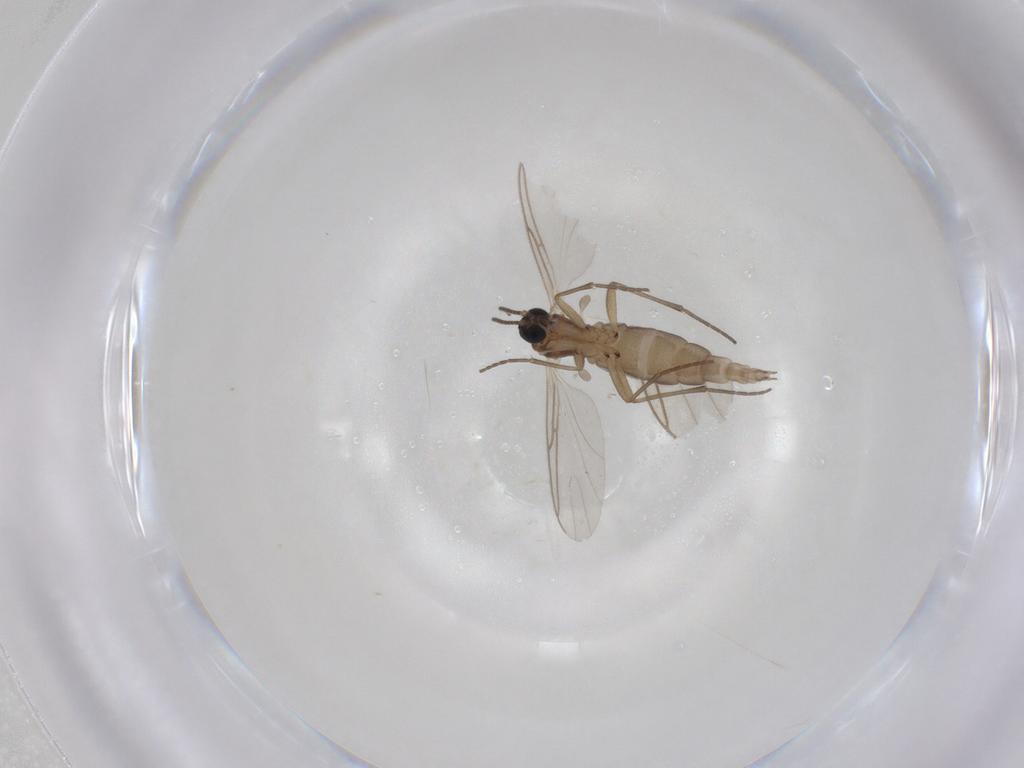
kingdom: Animalia
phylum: Arthropoda
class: Insecta
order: Diptera
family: Sciaridae
